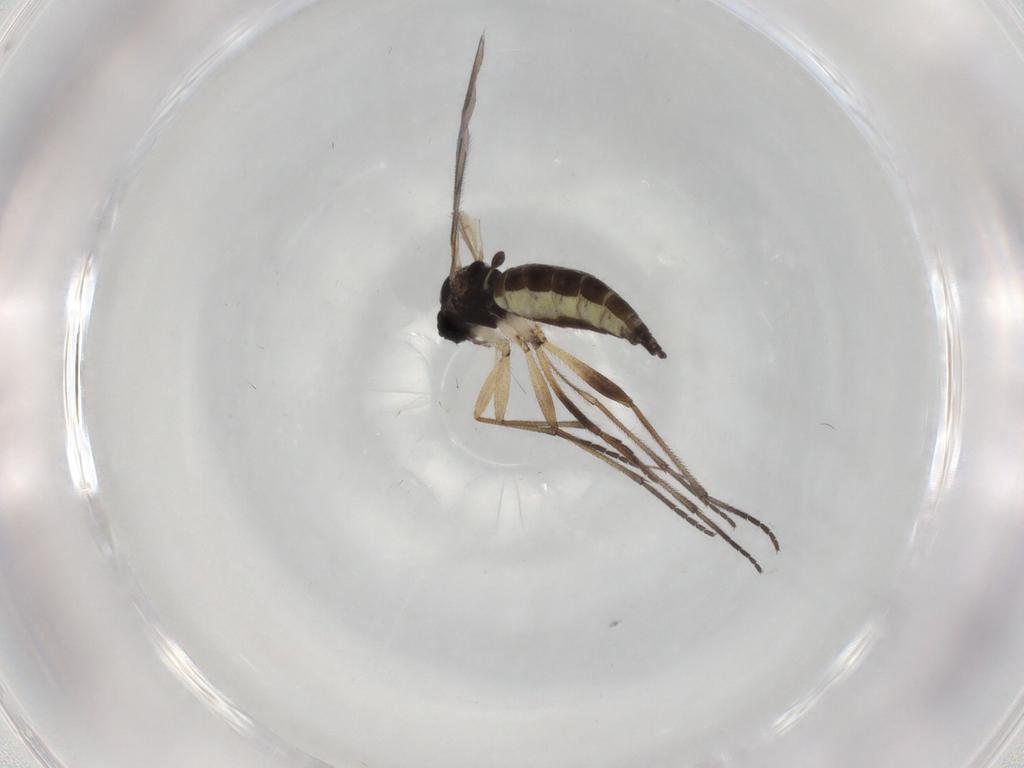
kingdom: Animalia
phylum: Arthropoda
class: Insecta
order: Diptera
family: Sciaridae
